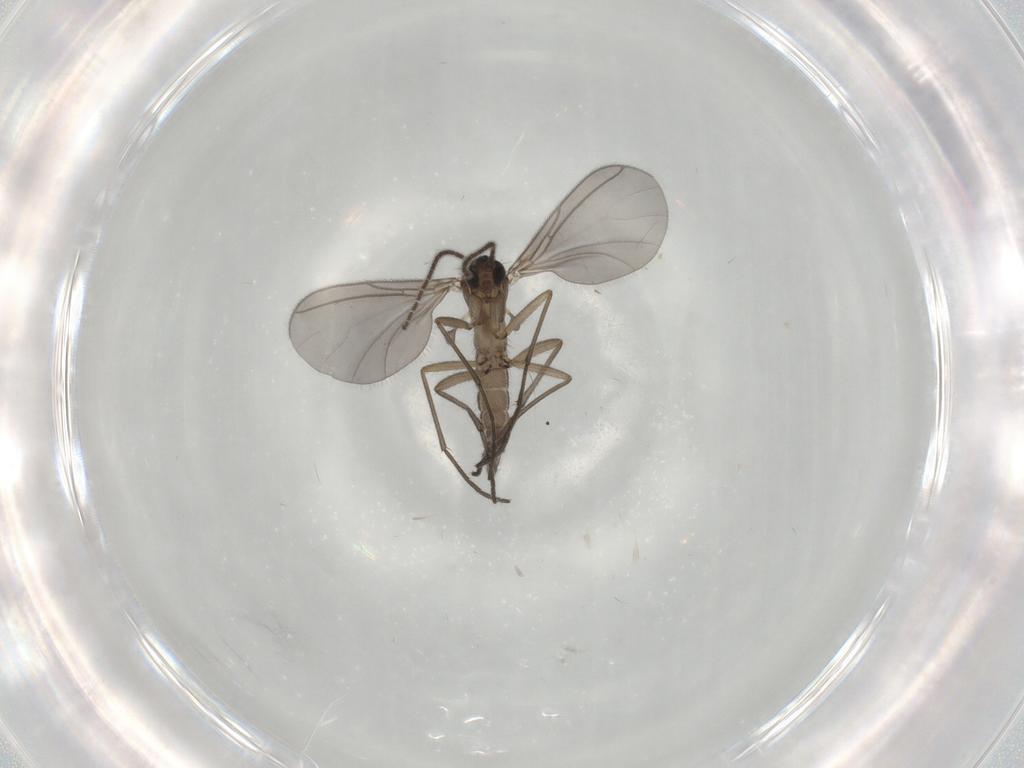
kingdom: Animalia
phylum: Arthropoda
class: Insecta
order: Diptera
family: Sciaridae
